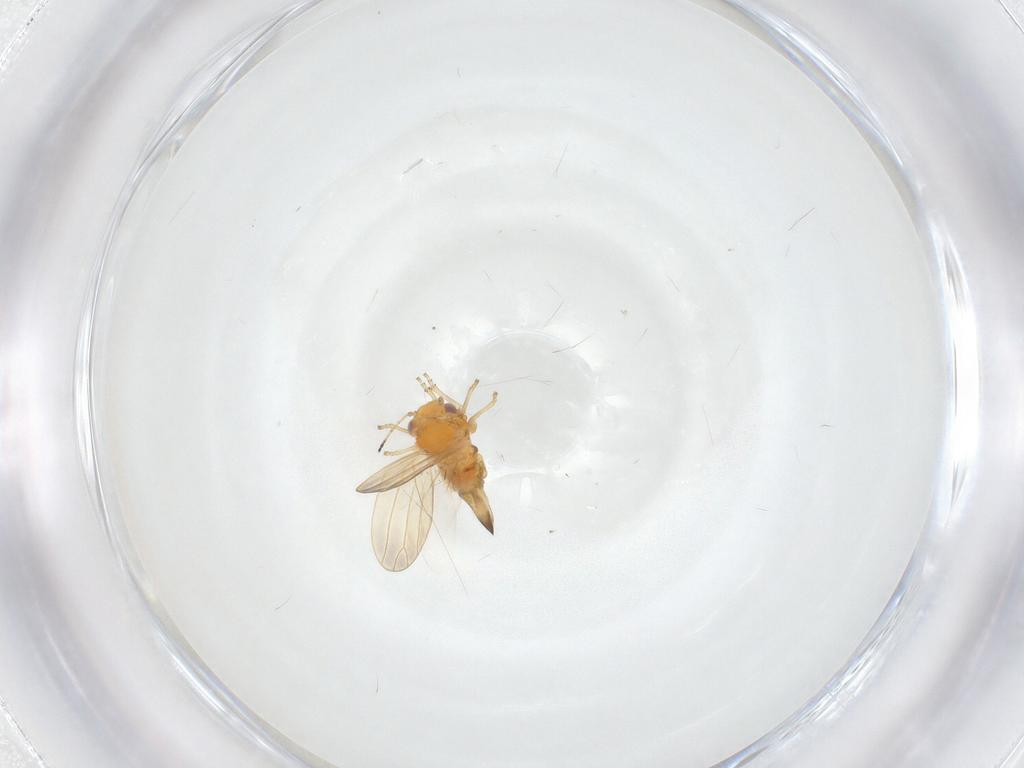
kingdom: Animalia
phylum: Arthropoda
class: Insecta
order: Hemiptera
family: Aphalaridae
